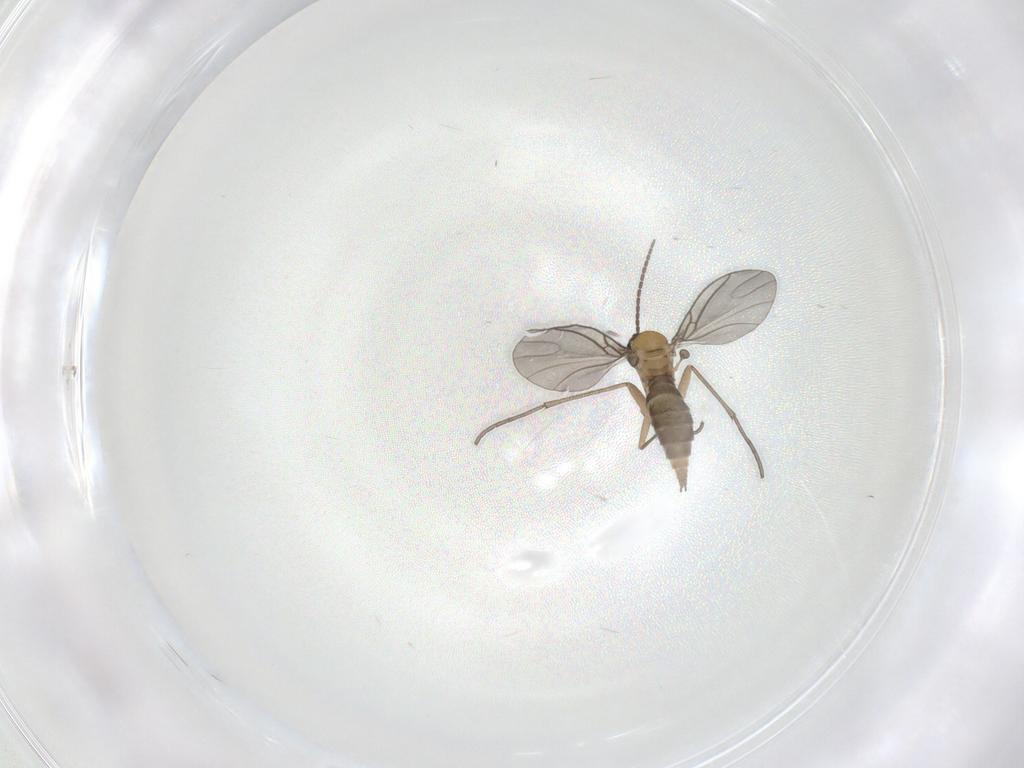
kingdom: Animalia
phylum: Arthropoda
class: Insecta
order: Diptera
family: Sciaridae
